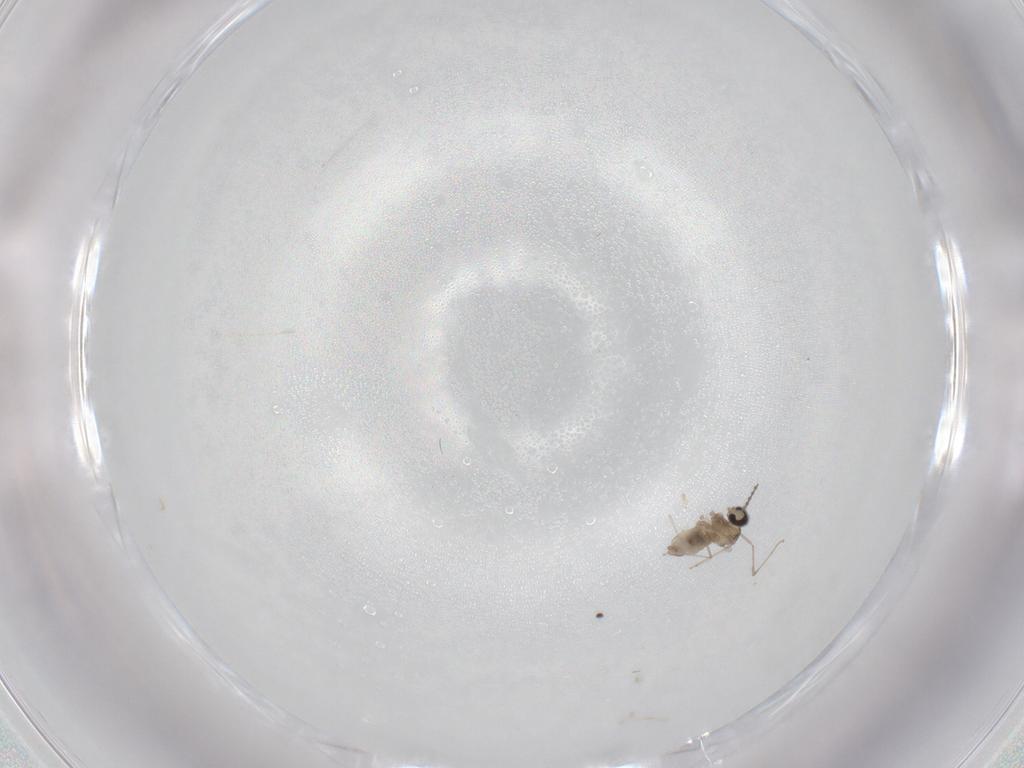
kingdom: Animalia
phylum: Arthropoda
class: Insecta
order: Diptera
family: Cecidomyiidae
